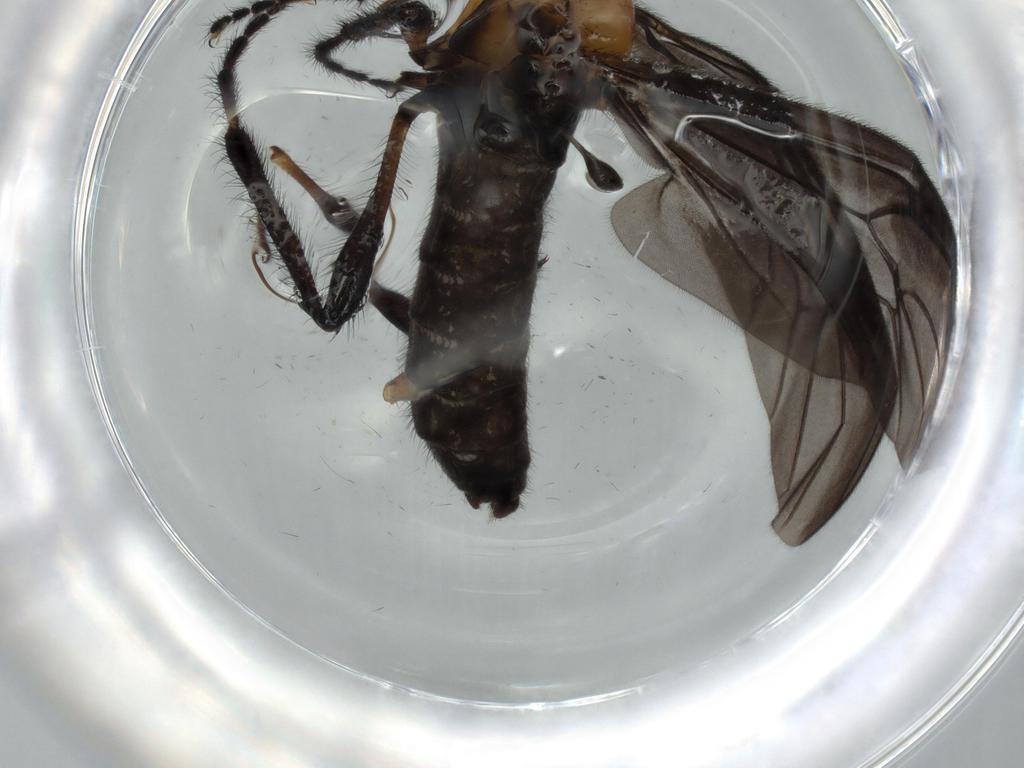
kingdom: Animalia
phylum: Arthropoda
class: Insecta
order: Diptera
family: Bibionidae
